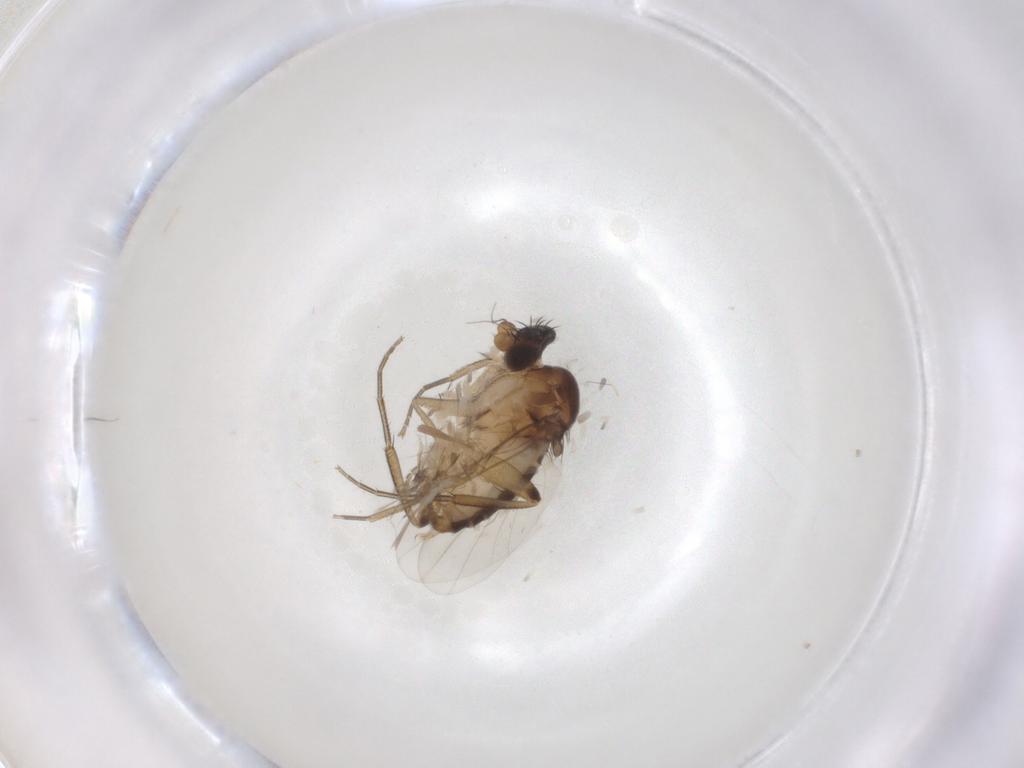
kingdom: Animalia
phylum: Arthropoda
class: Insecta
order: Diptera
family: Phoridae
